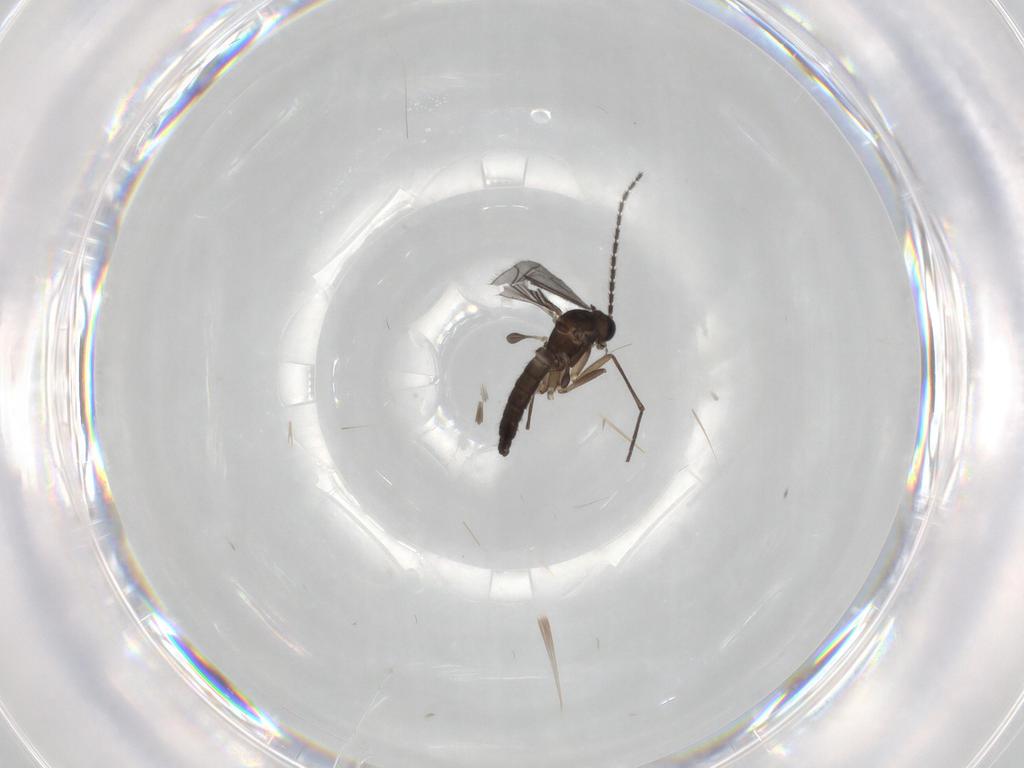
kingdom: Animalia
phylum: Arthropoda
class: Insecta
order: Diptera
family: Sciaridae
